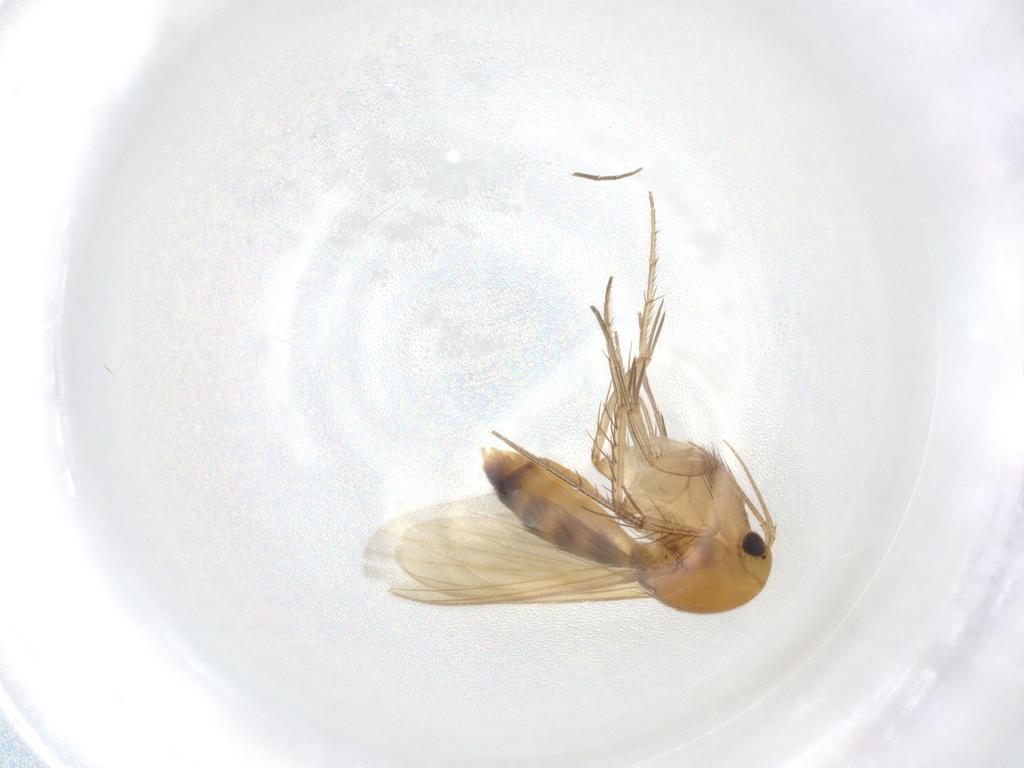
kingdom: Animalia
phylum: Arthropoda
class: Insecta
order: Diptera
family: Mycetophilidae
